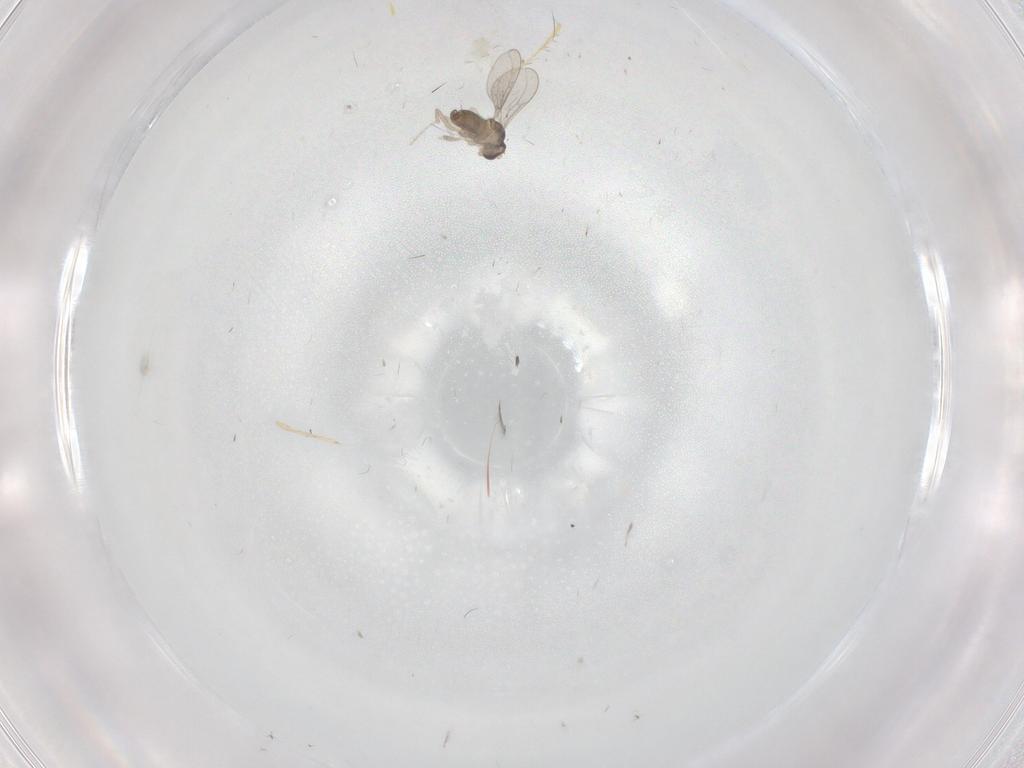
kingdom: Animalia
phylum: Arthropoda
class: Insecta
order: Diptera
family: Cecidomyiidae
